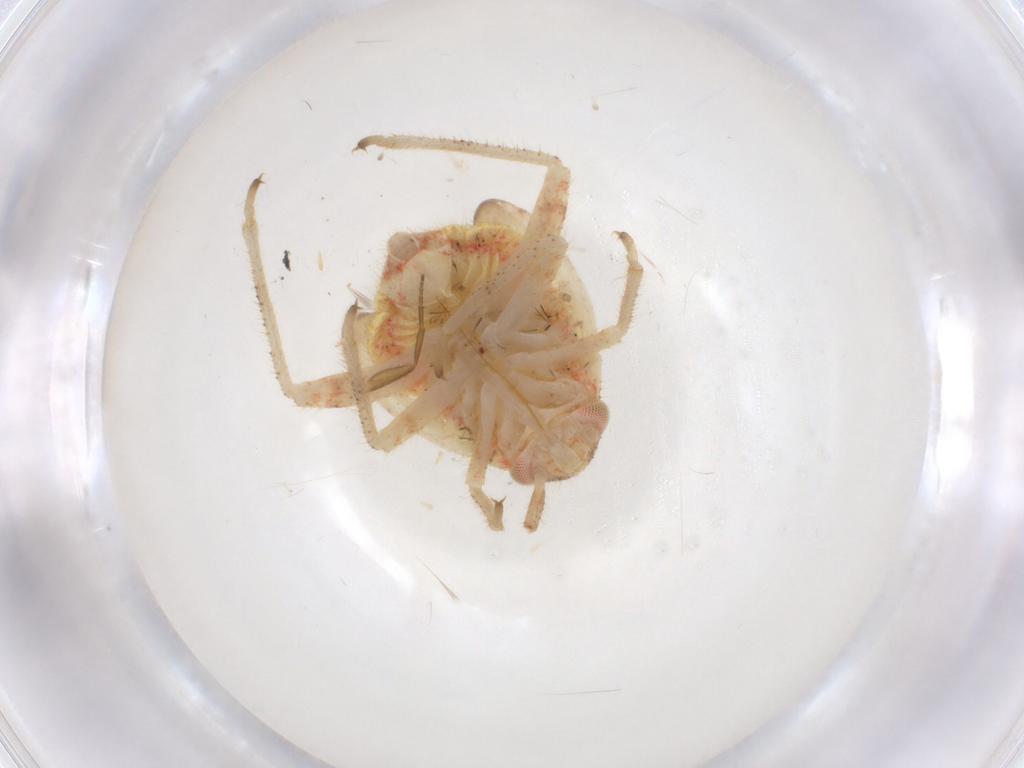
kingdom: Animalia
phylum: Arthropoda
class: Insecta
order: Hemiptera
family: Miridae
